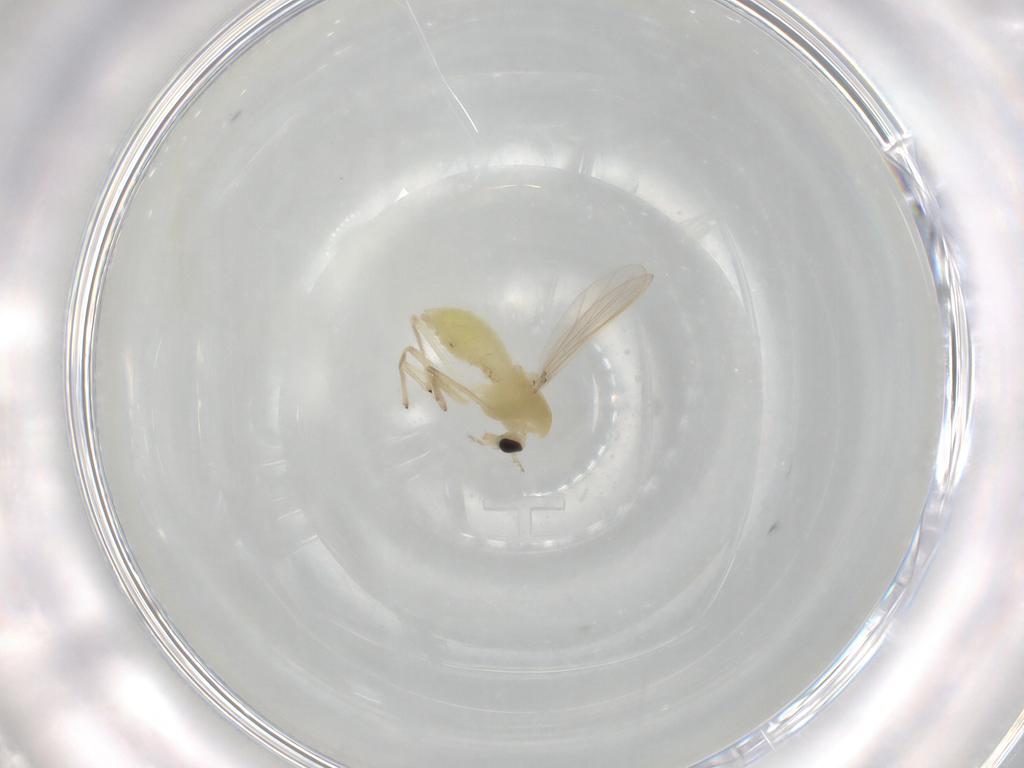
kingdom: Animalia
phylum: Arthropoda
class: Insecta
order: Diptera
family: Chironomidae
